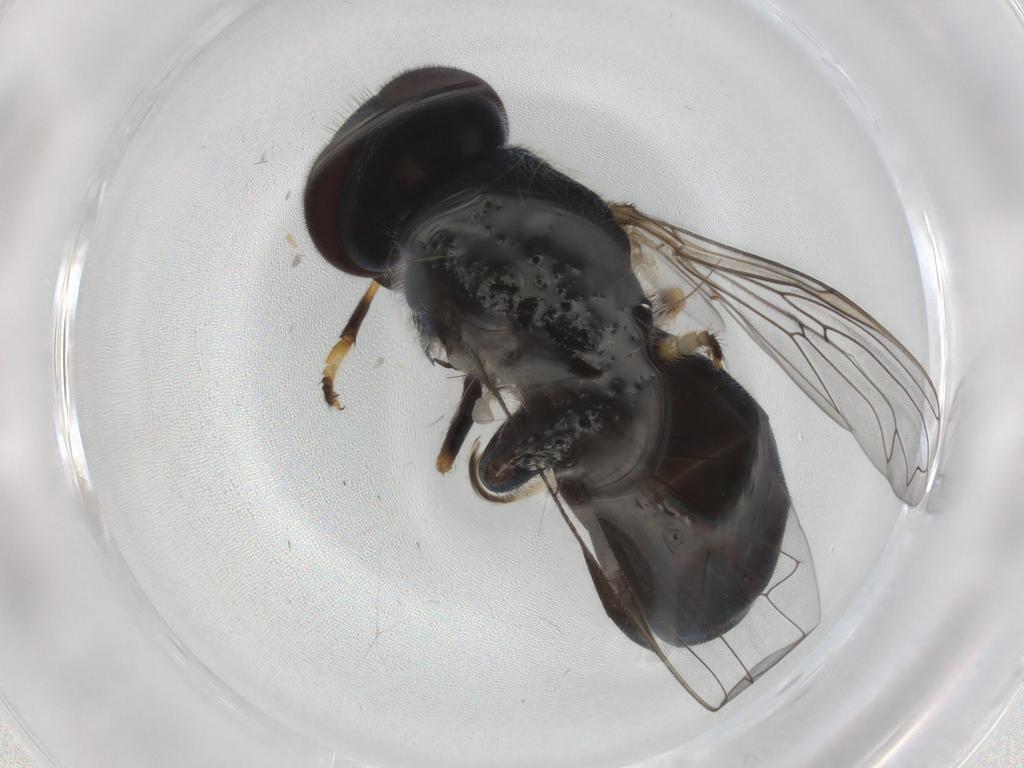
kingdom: Animalia
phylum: Arthropoda
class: Insecta
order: Diptera
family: Syrphidae
